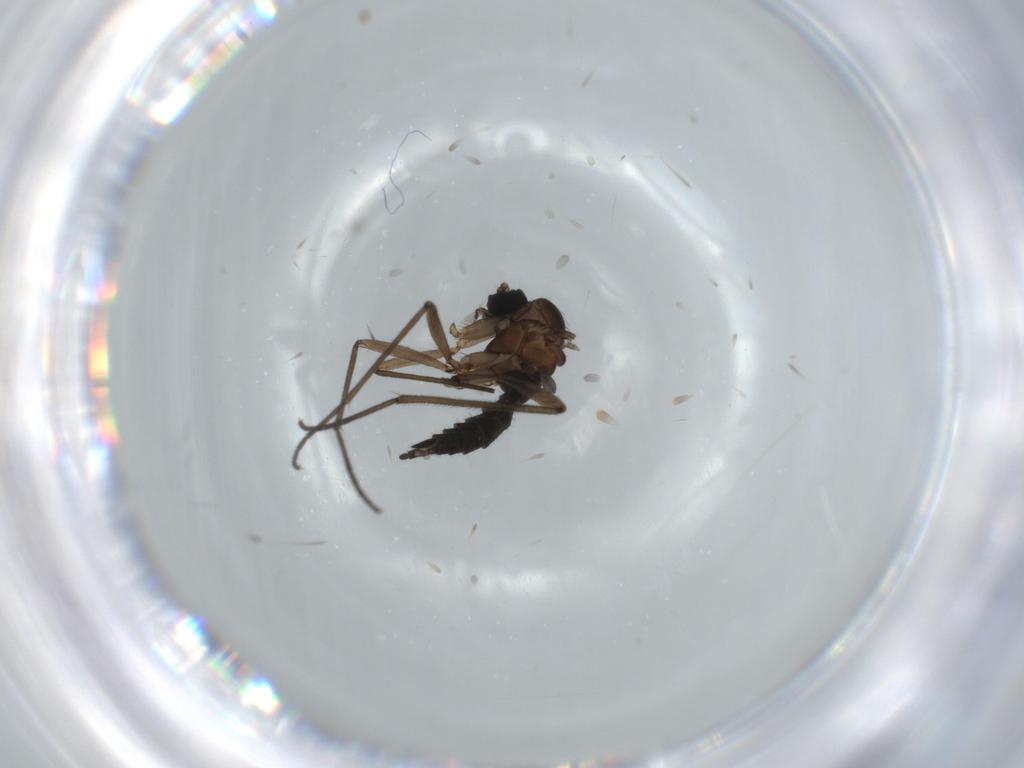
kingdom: Animalia
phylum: Arthropoda
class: Insecta
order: Diptera
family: Sciaridae
